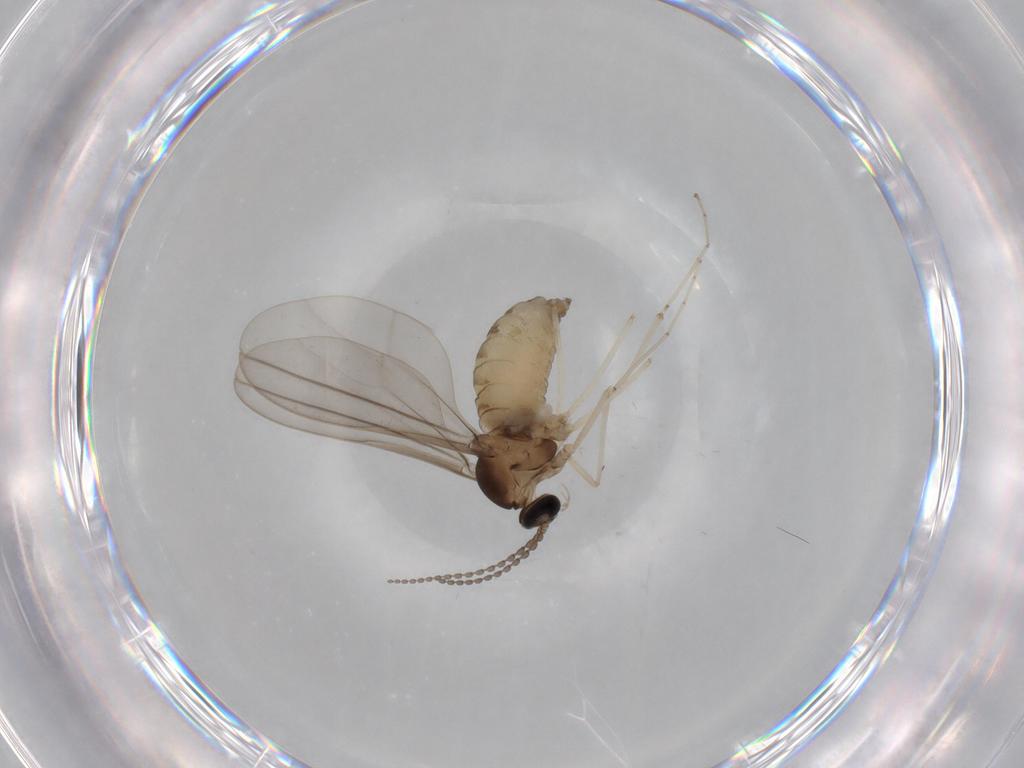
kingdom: Animalia
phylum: Arthropoda
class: Insecta
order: Diptera
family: Cecidomyiidae
